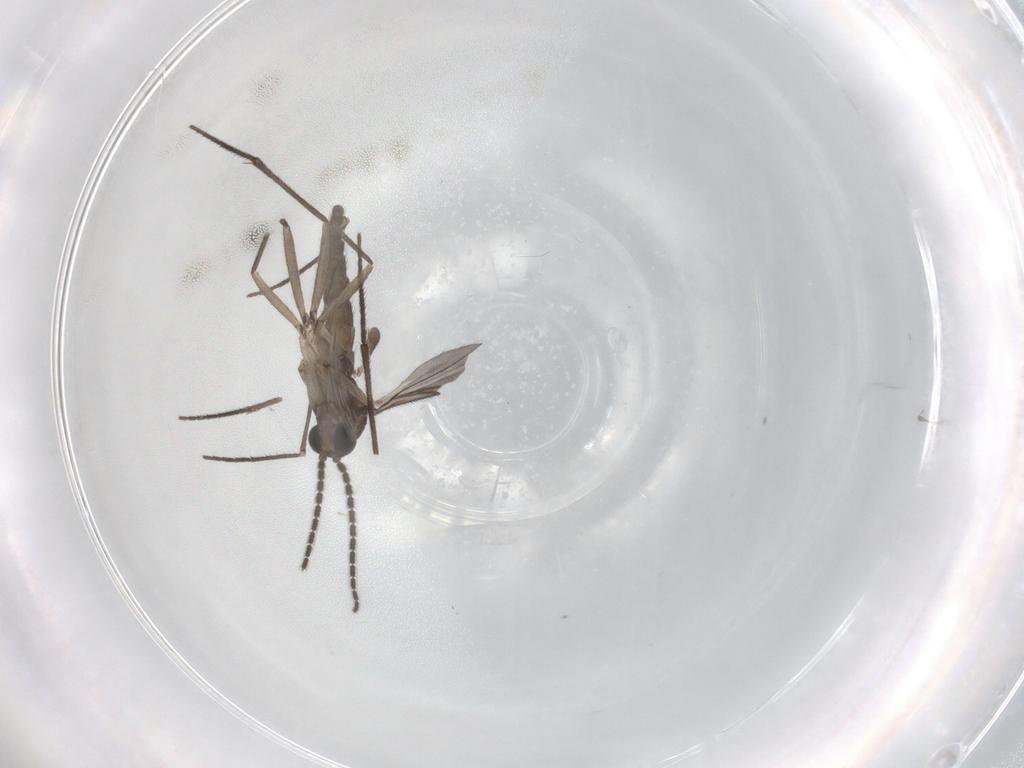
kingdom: Animalia
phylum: Arthropoda
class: Insecta
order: Diptera
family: Sciaridae
